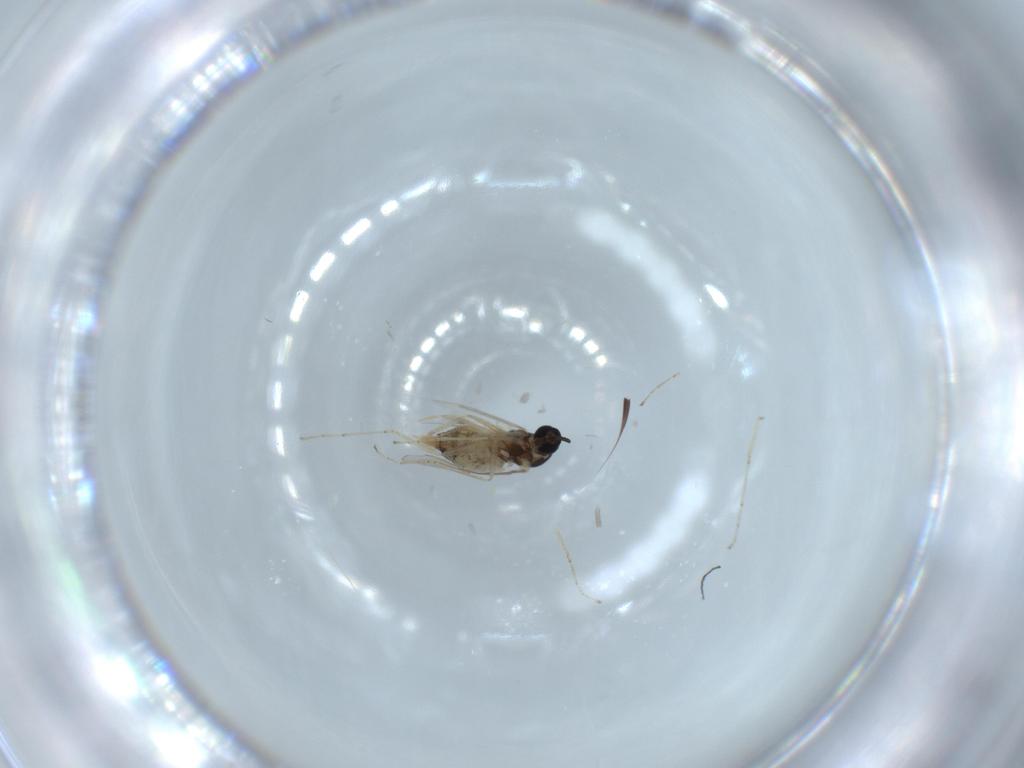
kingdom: Animalia
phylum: Arthropoda
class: Insecta
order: Diptera
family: Cecidomyiidae
